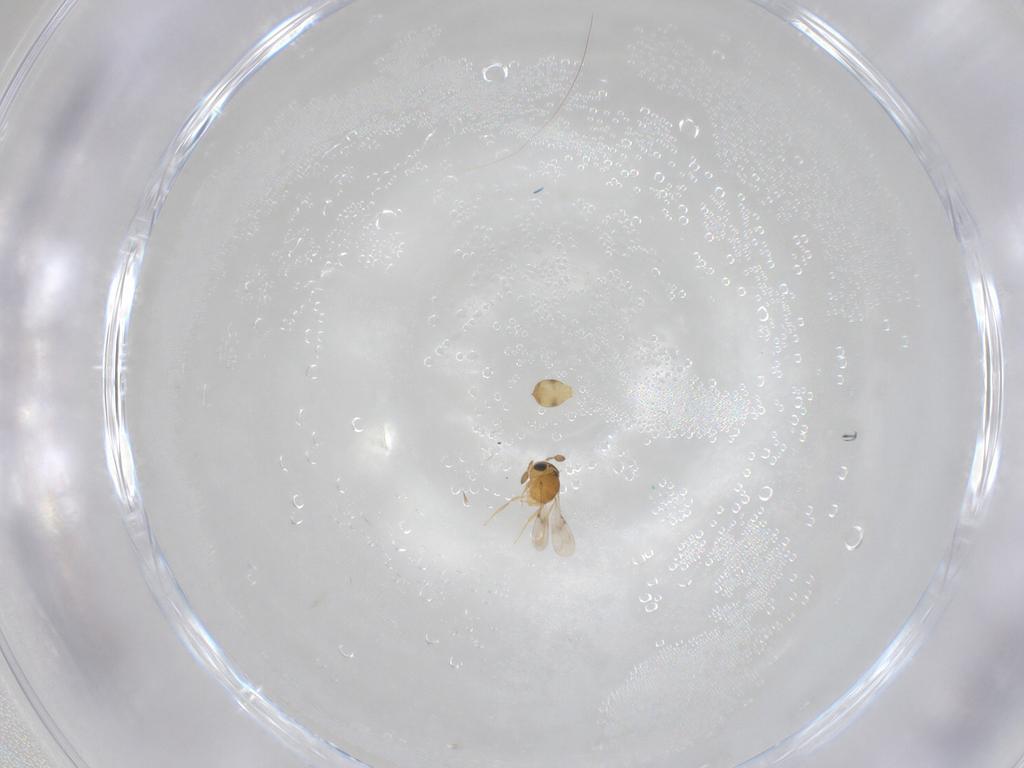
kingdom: Animalia
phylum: Arthropoda
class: Insecta
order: Hymenoptera
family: Scelionidae
